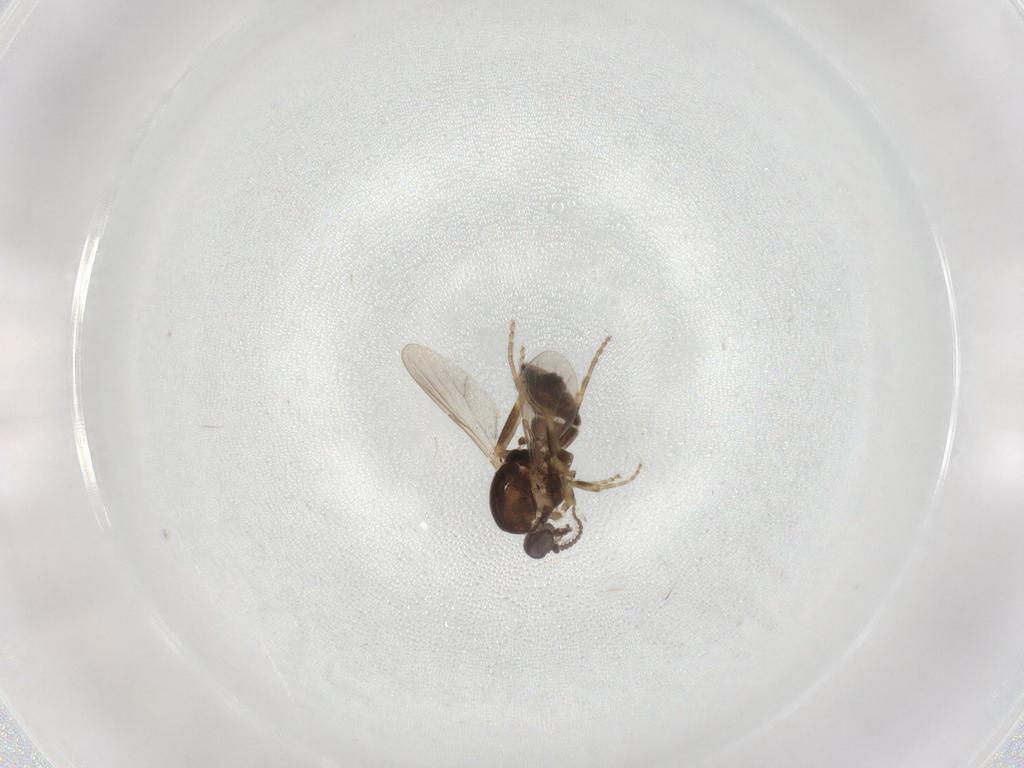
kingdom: Animalia
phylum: Arthropoda
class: Insecta
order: Diptera
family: Ceratopogonidae
